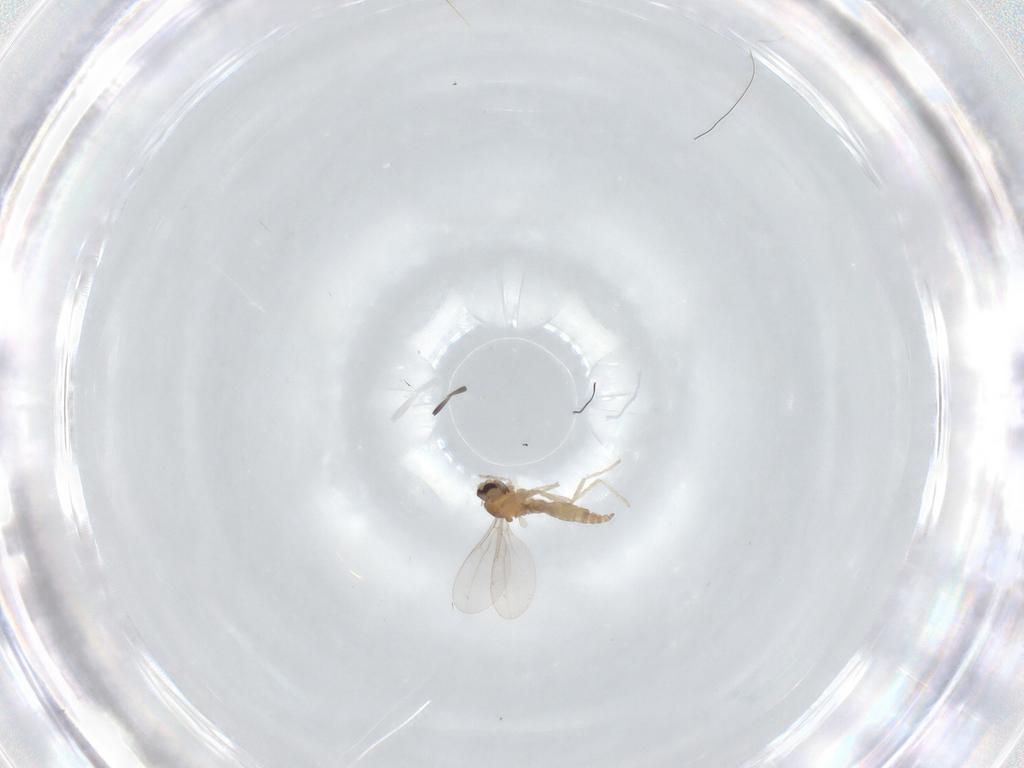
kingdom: Animalia
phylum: Arthropoda
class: Insecta
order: Diptera
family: Cecidomyiidae
